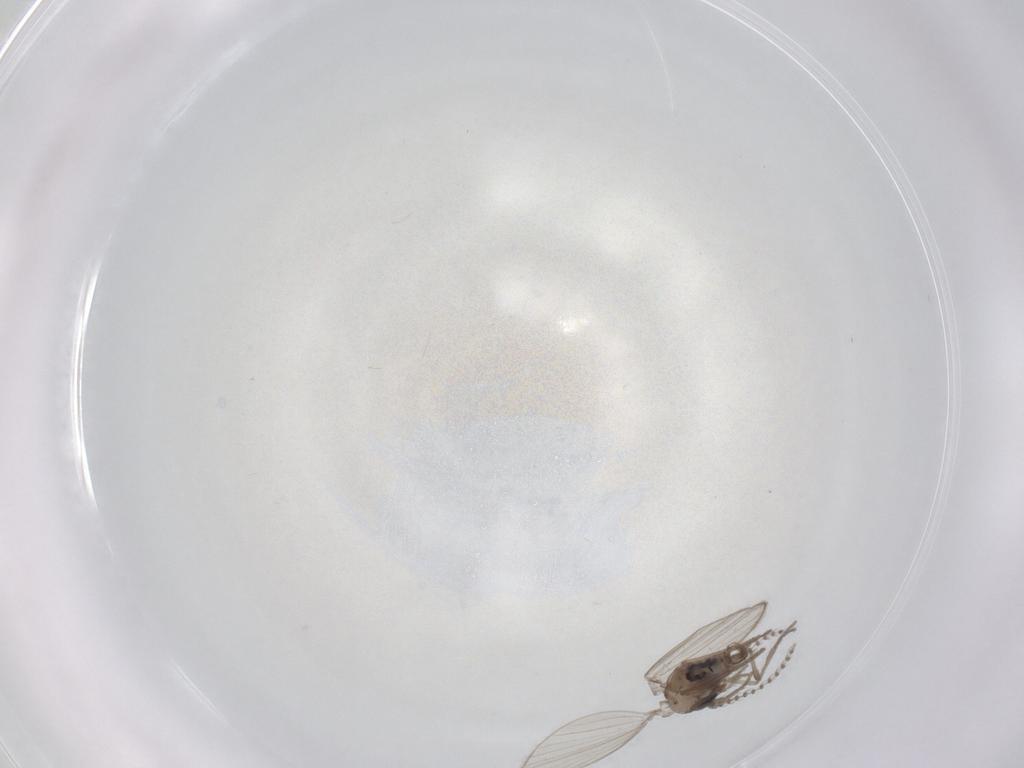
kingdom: Animalia
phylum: Arthropoda
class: Insecta
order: Diptera
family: Psychodidae
